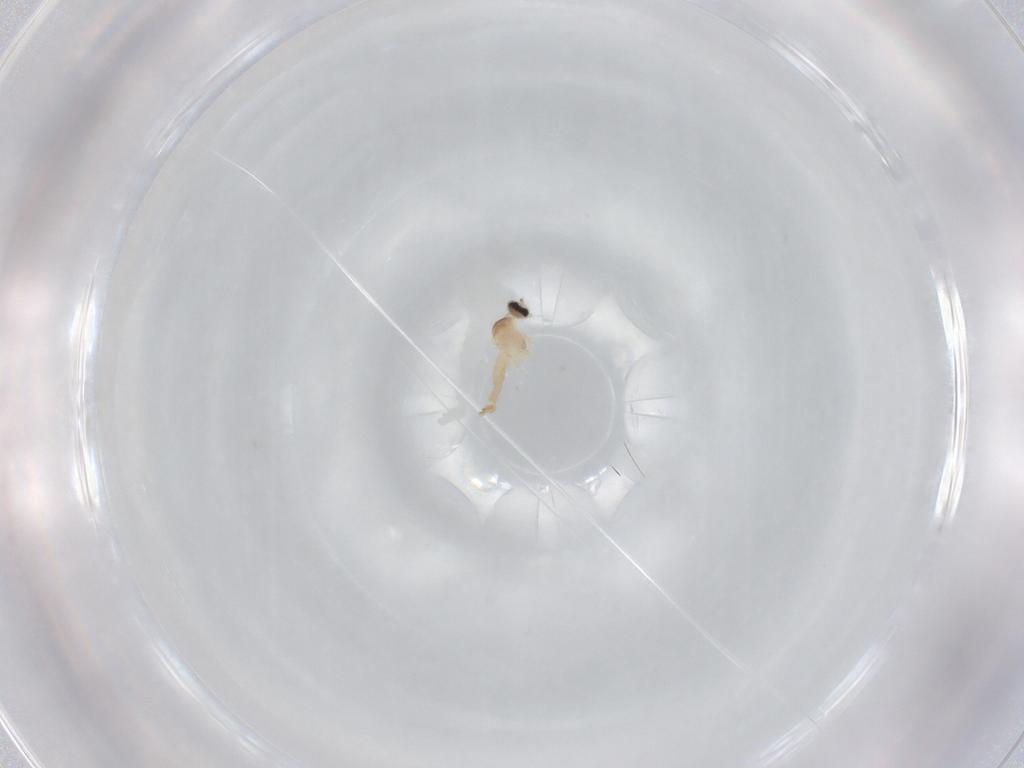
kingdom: Animalia
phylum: Arthropoda
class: Insecta
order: Diptera
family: Cecidomyiidae
